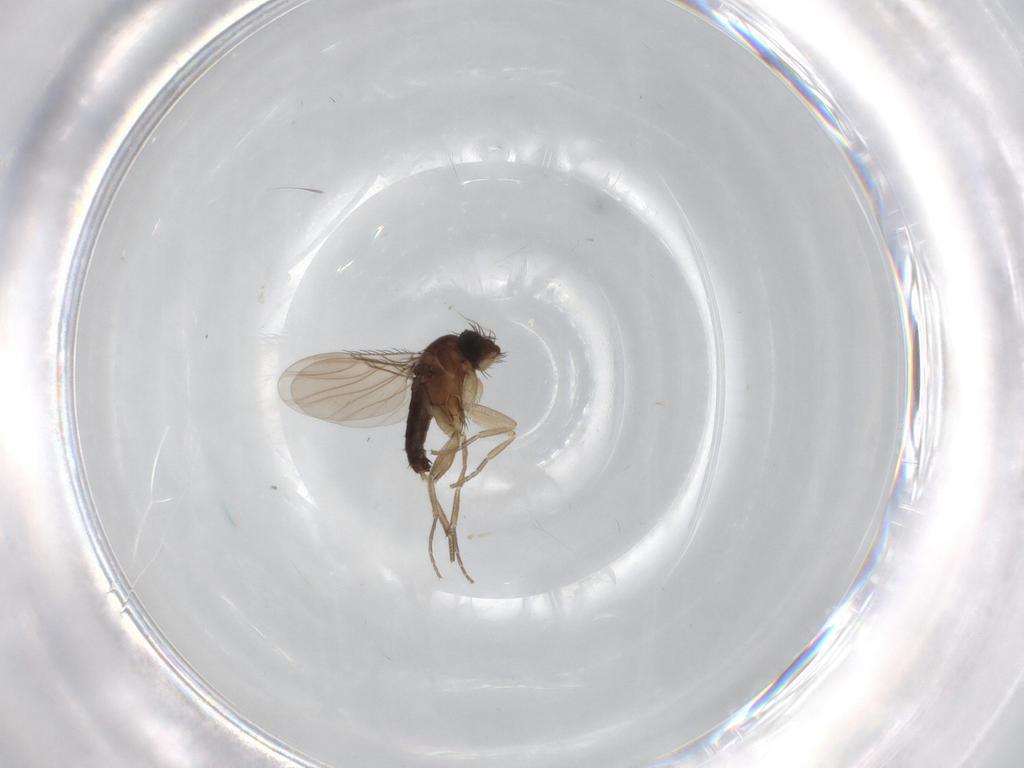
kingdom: Animalia
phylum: Arthropoda
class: Insecta
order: Diptera
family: Phoridae
